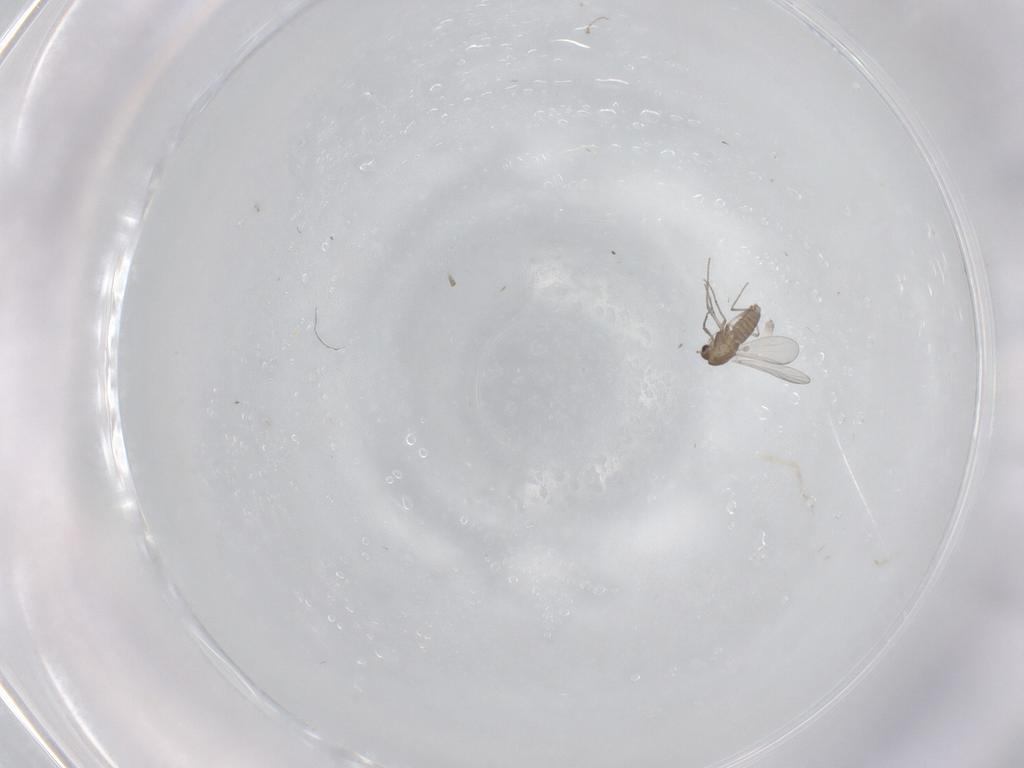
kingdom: Animalia
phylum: Arthropoda
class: Insecta
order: Diptera
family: Chironomidae
